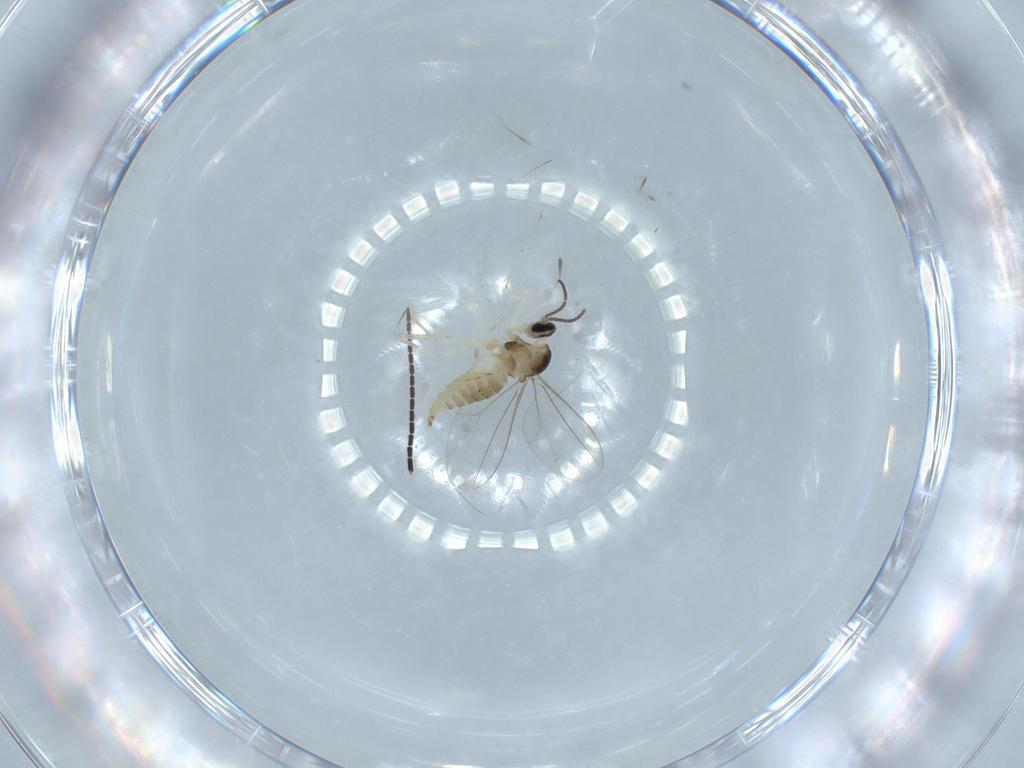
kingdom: Animalia
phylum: Arthropoda
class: Insecta
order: Diptera
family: Cecidomyiidae
